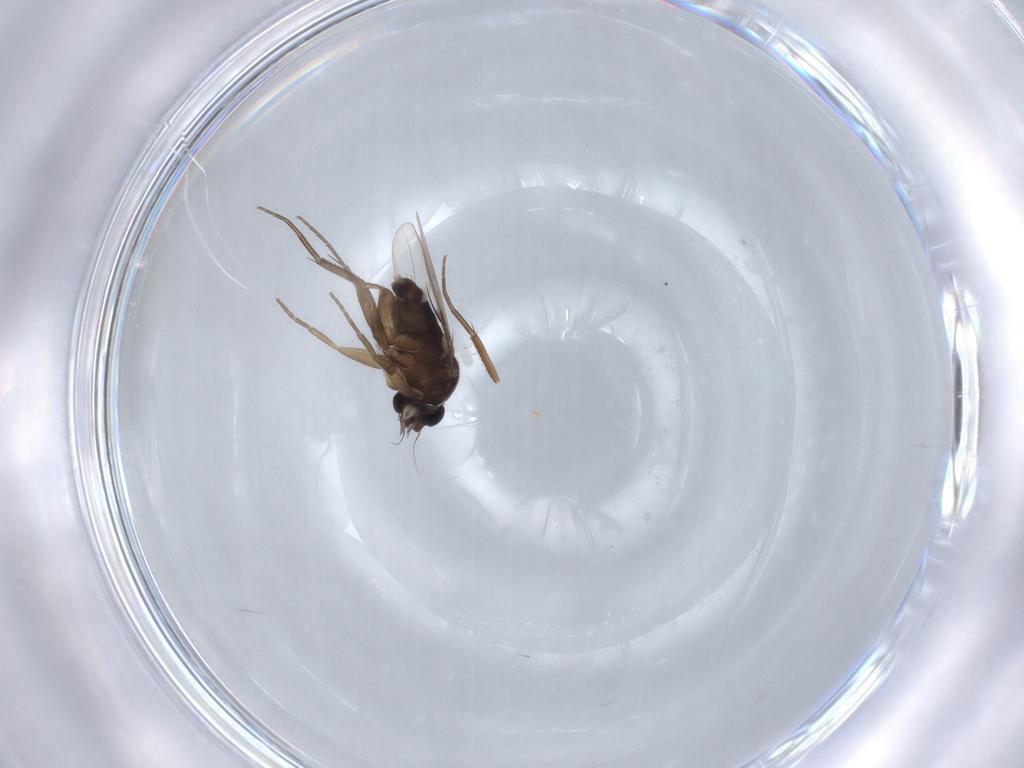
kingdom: Animalia
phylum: Arthropoda
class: Insecta
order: Diptera
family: Phoridae
